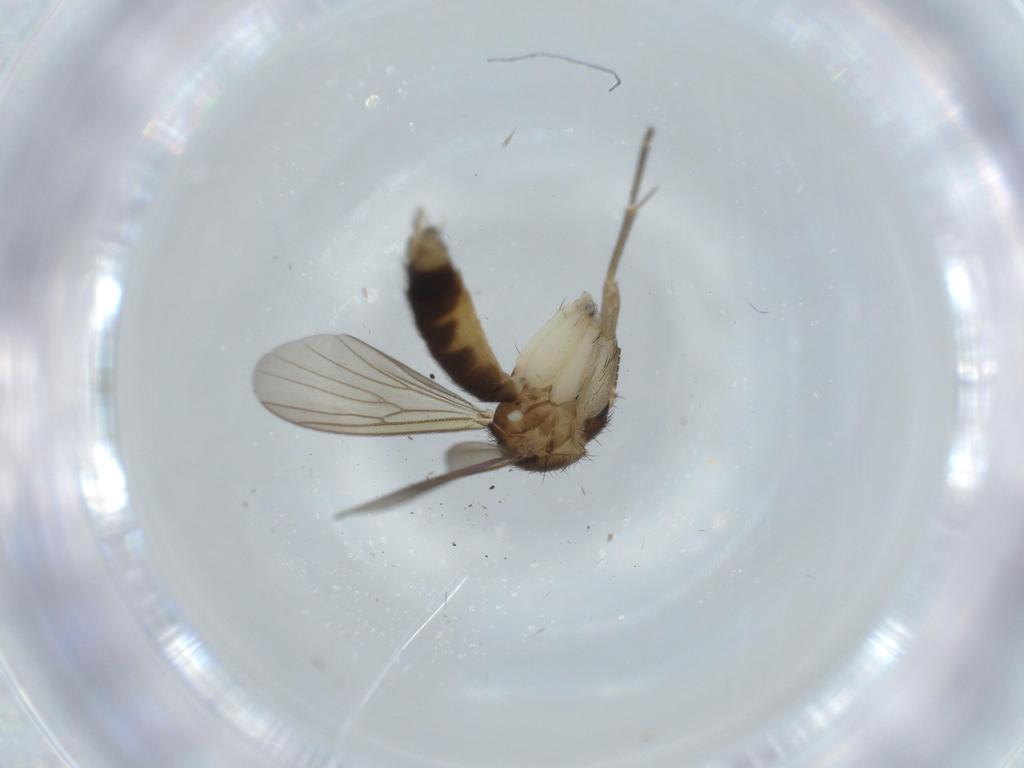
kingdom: Animalia
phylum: Arthropoda
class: Insecta
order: Diptera
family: Mycetophilidae
